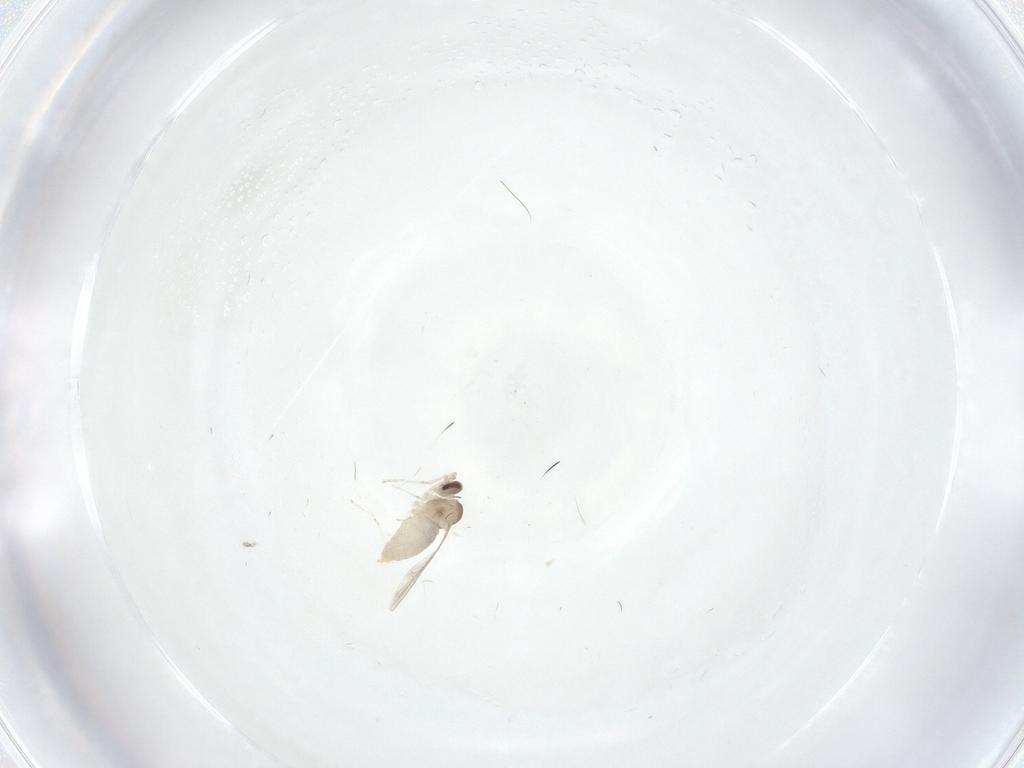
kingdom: Animalia
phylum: Arthropoda
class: Insecta
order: Diptera
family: Cecidomyiidae
